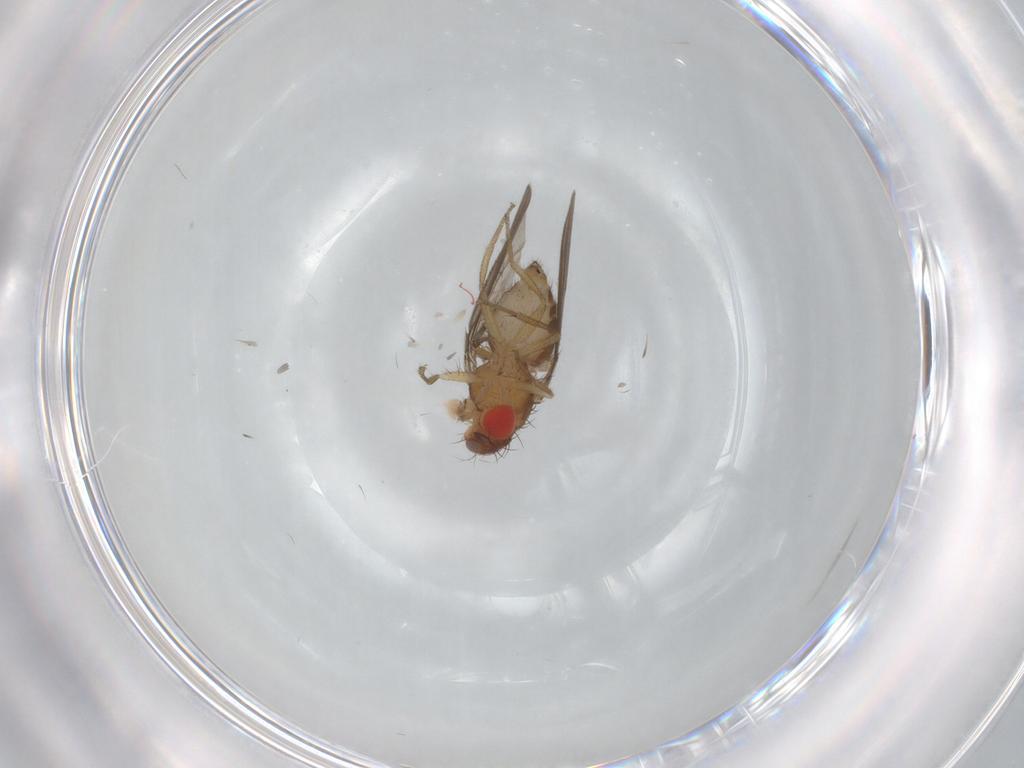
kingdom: Animalia
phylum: Arthropoda
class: Insecta
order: Diptera
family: Drosophilidae
